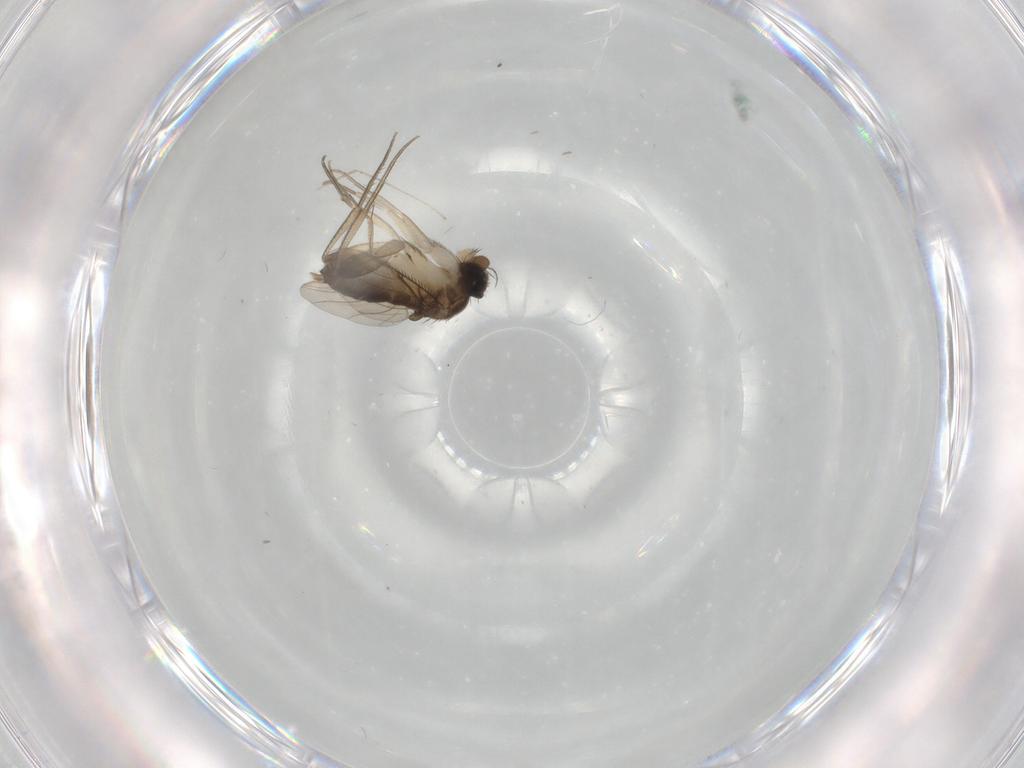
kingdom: Animalia
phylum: Arthropoda
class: Insecta
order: Diptera
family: Phoridae
